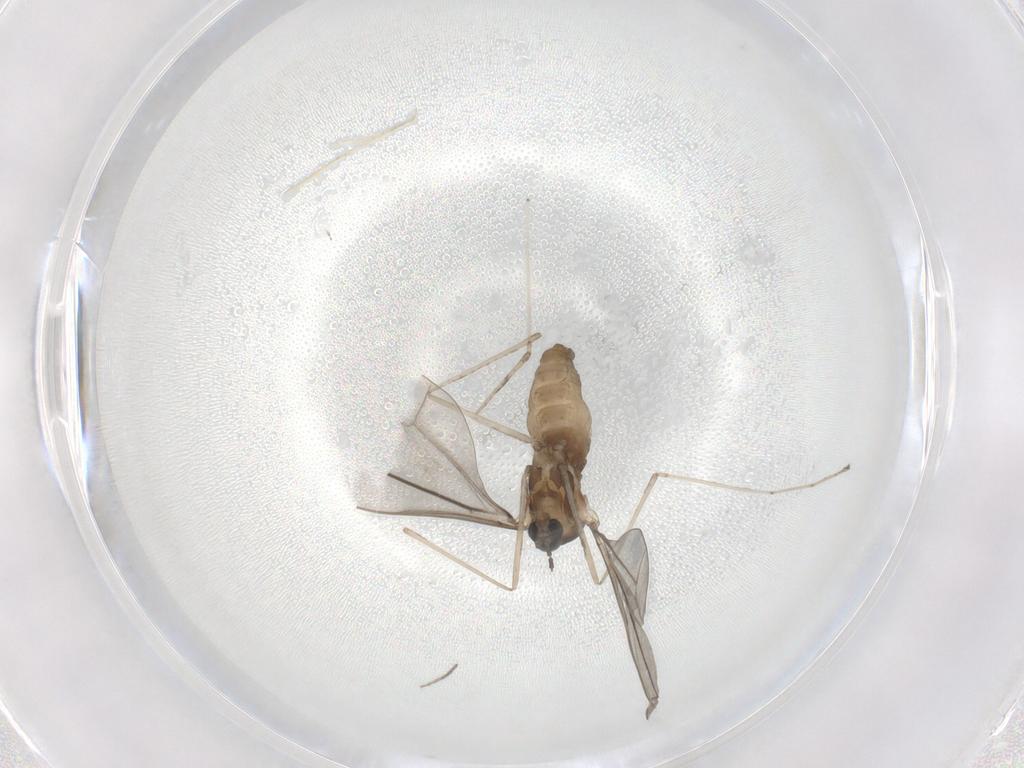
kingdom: Animalia
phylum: Arthropoda
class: Insecta
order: Diptera
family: Cecidomyiidae
